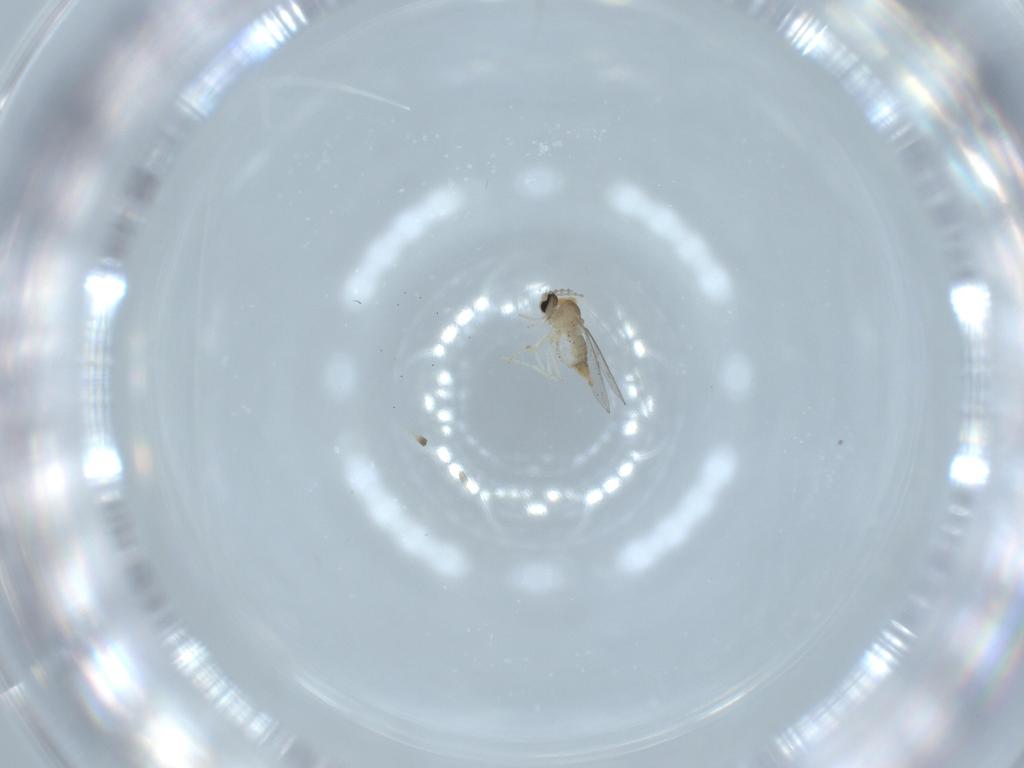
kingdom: Animalia
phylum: Arthropoda
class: Insecta
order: Diptera
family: Cecidomyiidae
